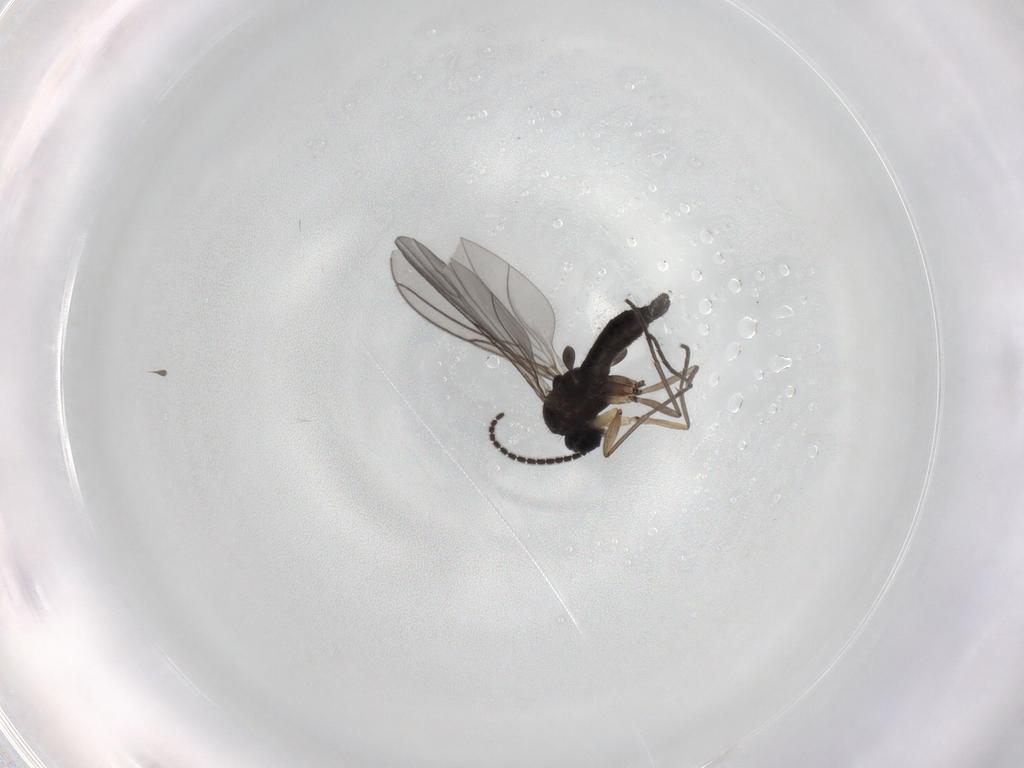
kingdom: Animalia
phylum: Arthropoda
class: Insecta
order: Diptera
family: Sciaridae
